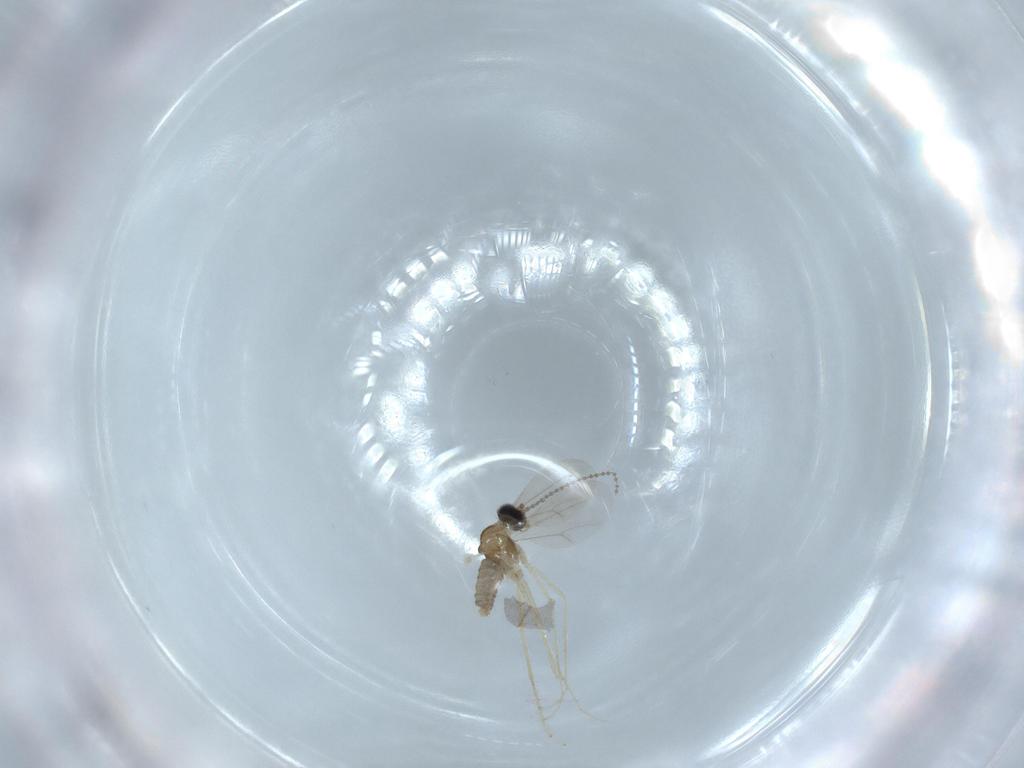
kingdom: Animalia
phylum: Arthropoda
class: Insecta
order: Diptera
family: Cecidomyiidae
